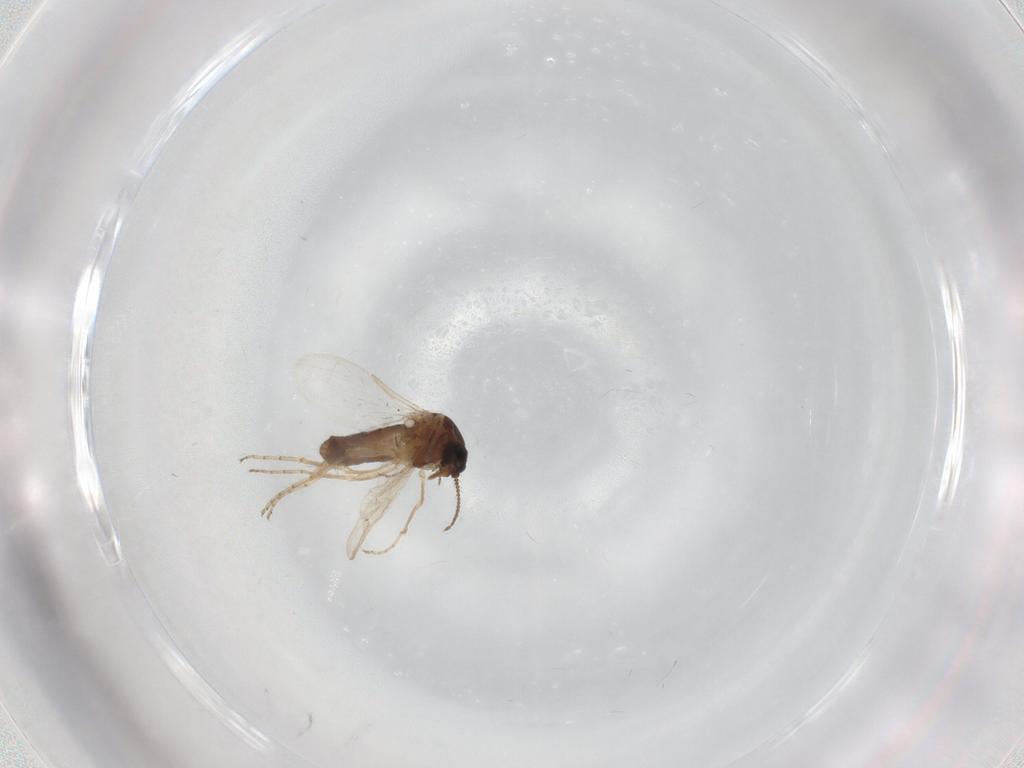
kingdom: Animalia
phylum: Arthropoda
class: Insecta
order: Diptera
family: Ceratopogonidae
